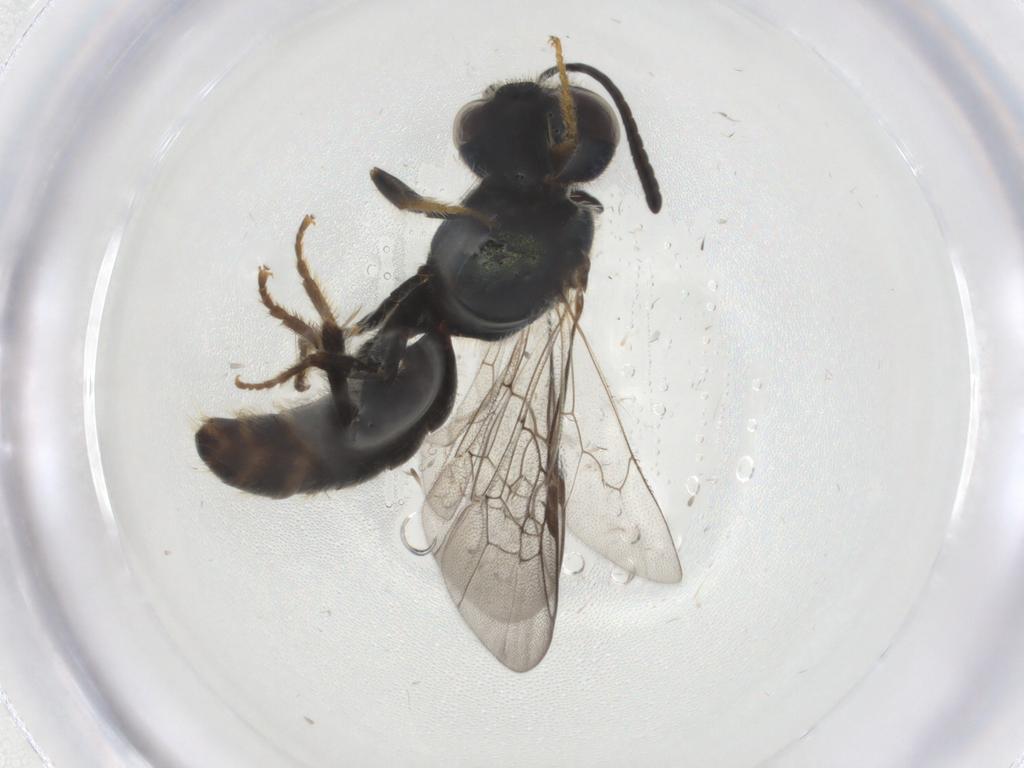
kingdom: Animalia
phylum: Arthropoda
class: Insecta
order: Hymenoptera
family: Halictidae
